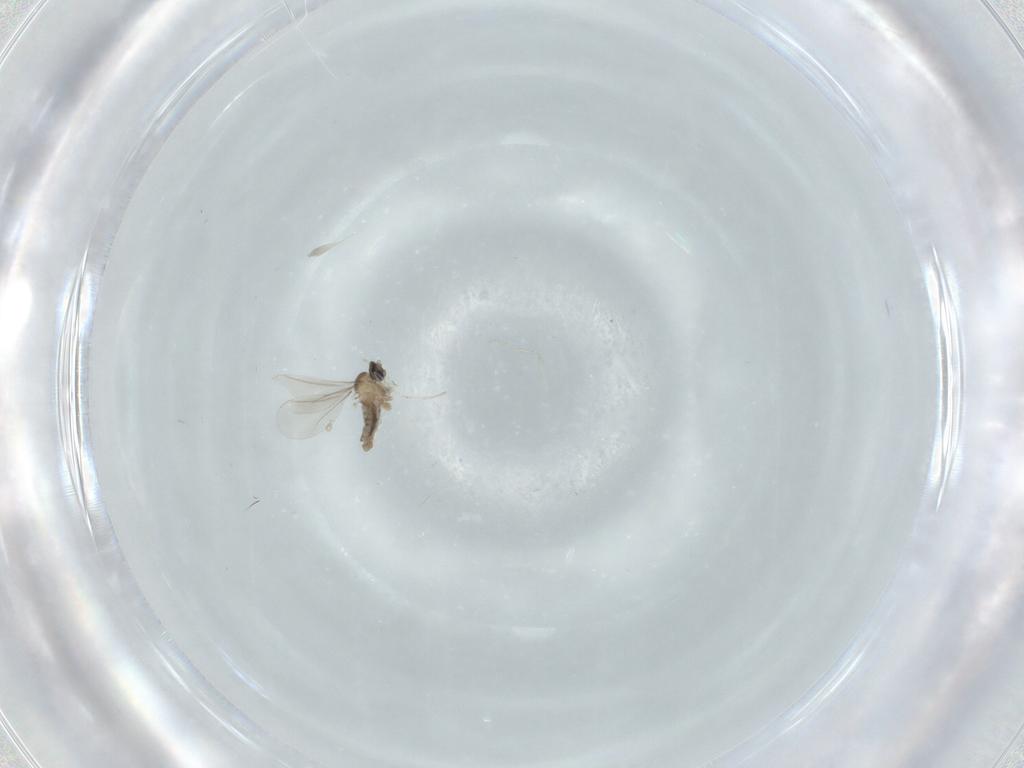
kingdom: Animalia
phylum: Arthropoda
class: Insecta
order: Diptera
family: Cecidomyiidae
